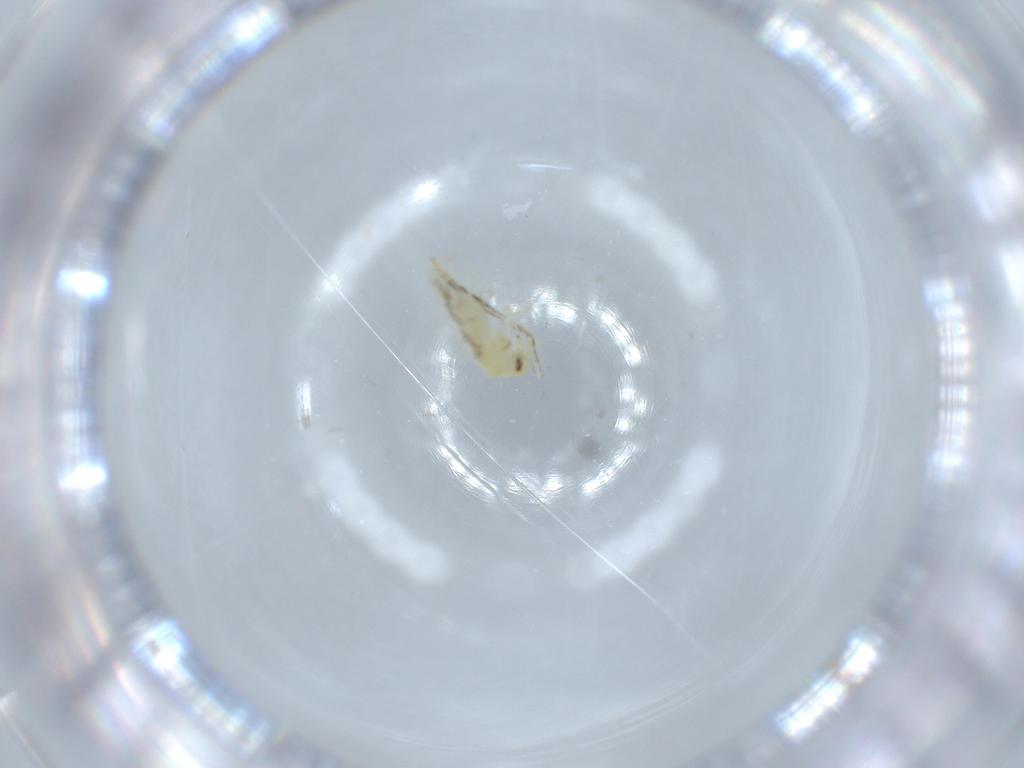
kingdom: Animalia
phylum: Arthropoda
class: Insecta
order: Hemiptera
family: Aleyrodidae
